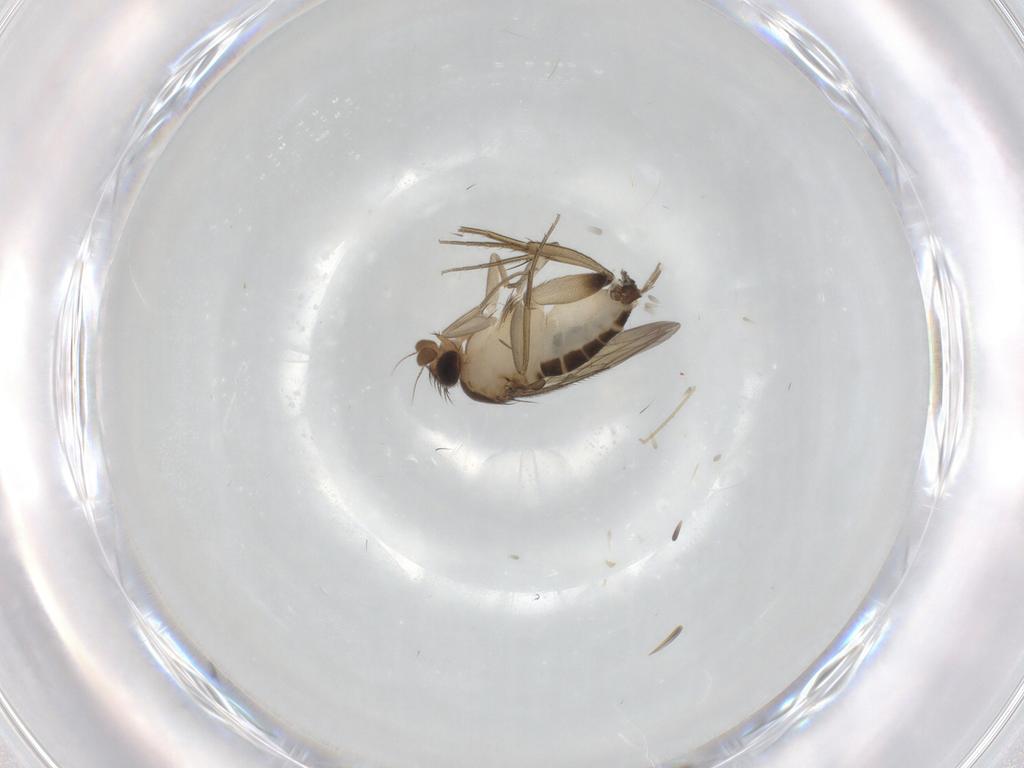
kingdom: Animalia
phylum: Arthropoda
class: Insecta
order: Diptera
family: Phoridae
